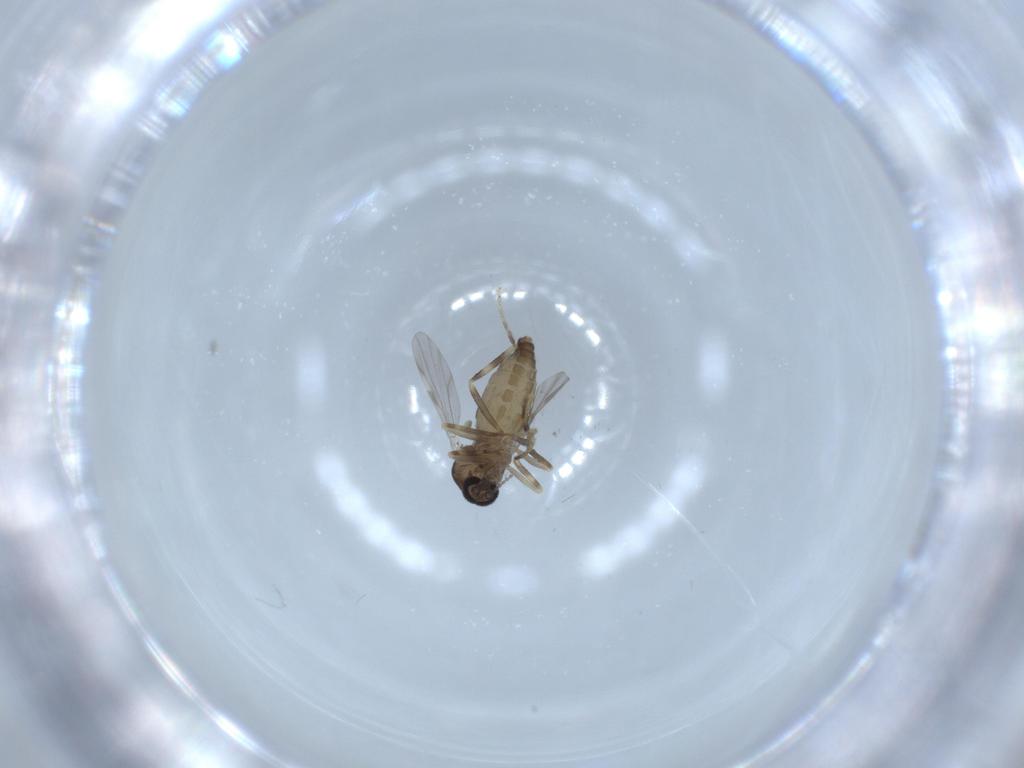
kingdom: Animalia
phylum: Arthropoda
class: Insecta
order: Diptera
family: Ceratopogonidae
